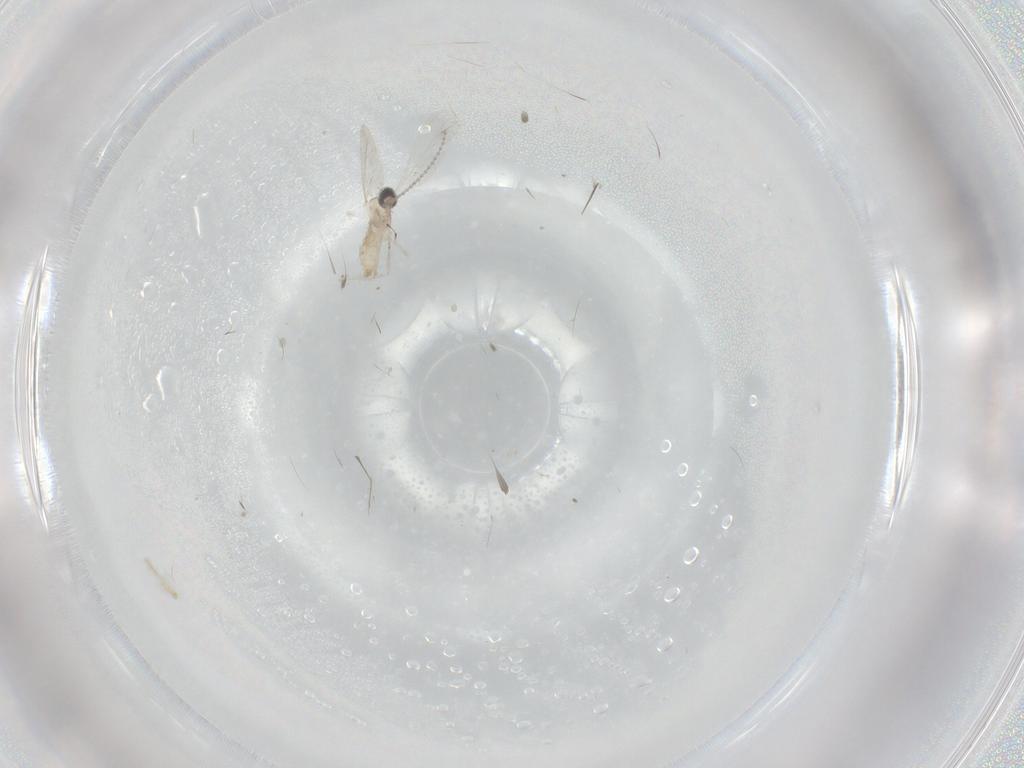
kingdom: Animalia
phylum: Arthropoda
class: Insecta
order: Diptera
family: Cecidomyiidae
